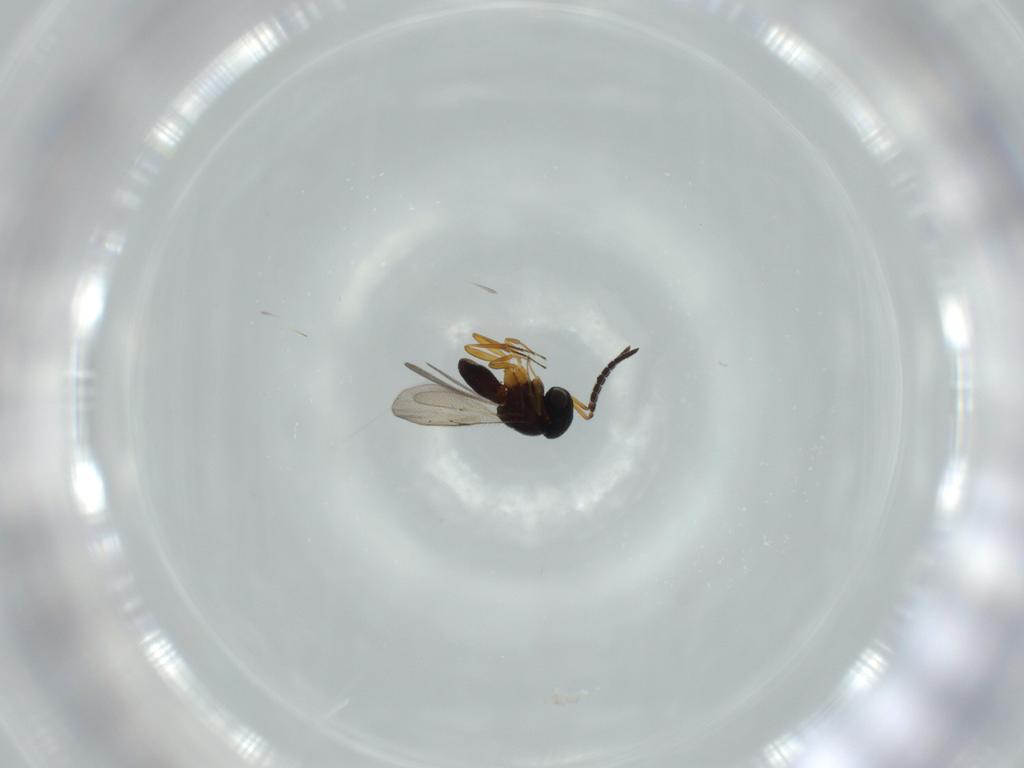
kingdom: Animalia
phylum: Arthropoda
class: Insecta
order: Coleoptera
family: Curculionidae
